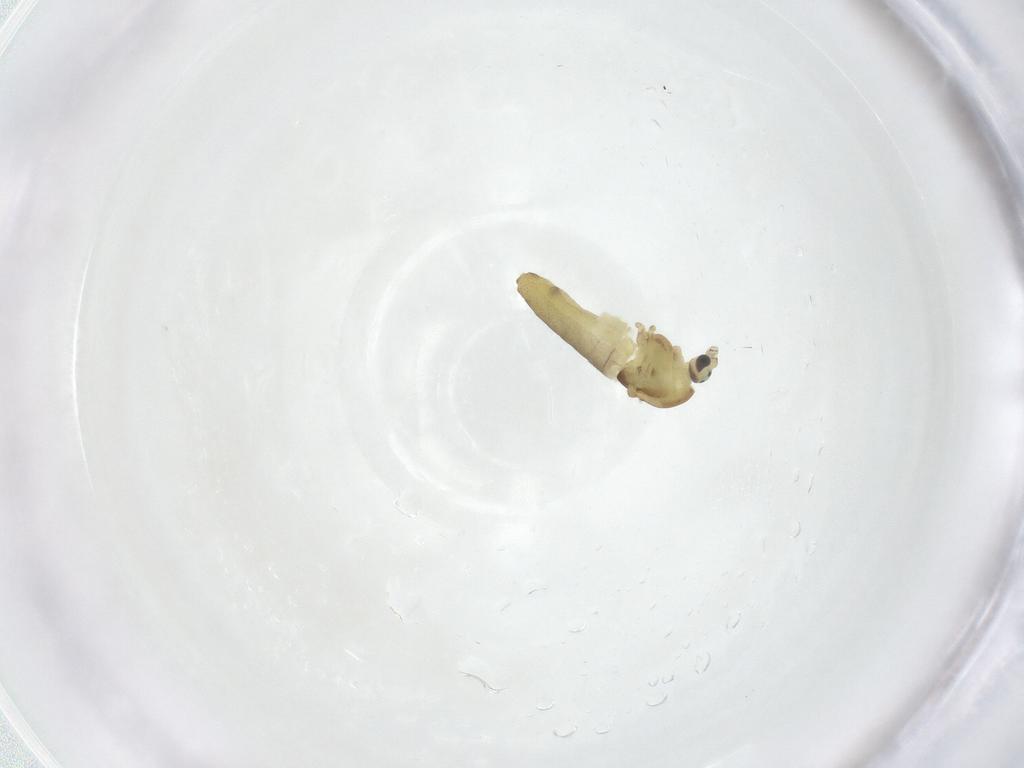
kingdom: Animalia
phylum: Arthropoda
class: Insecta
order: Diptera
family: Chironomidae
